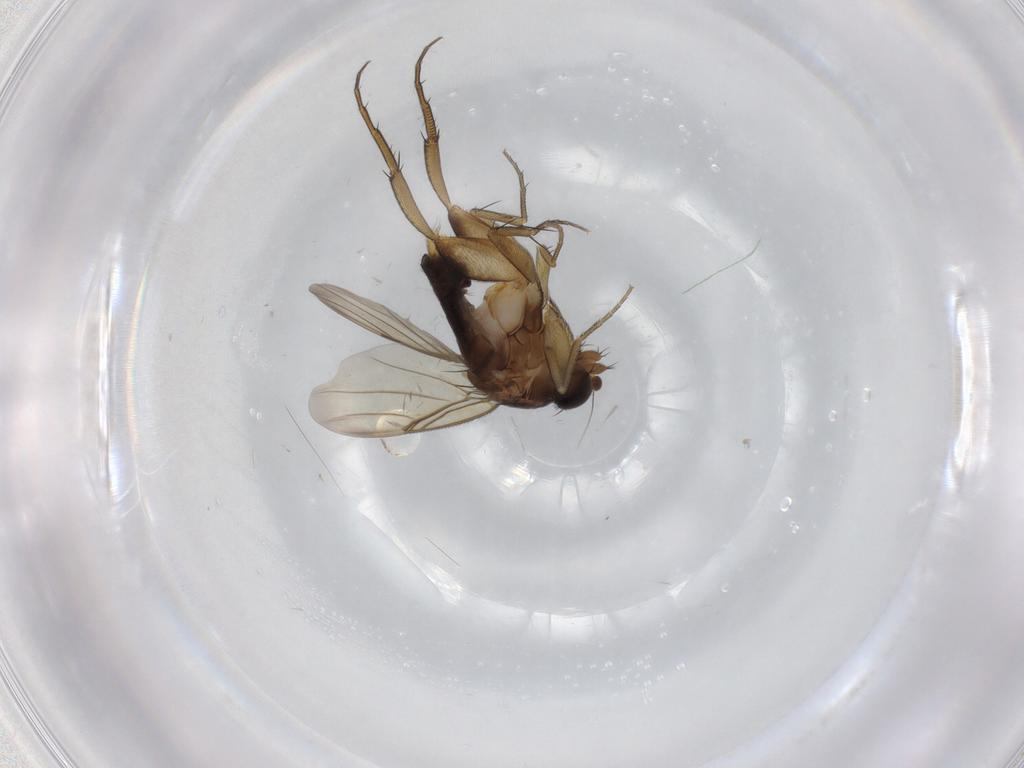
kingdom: Animalia
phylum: Arthropoda
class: Insecta
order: Diptera
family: Phoridae
